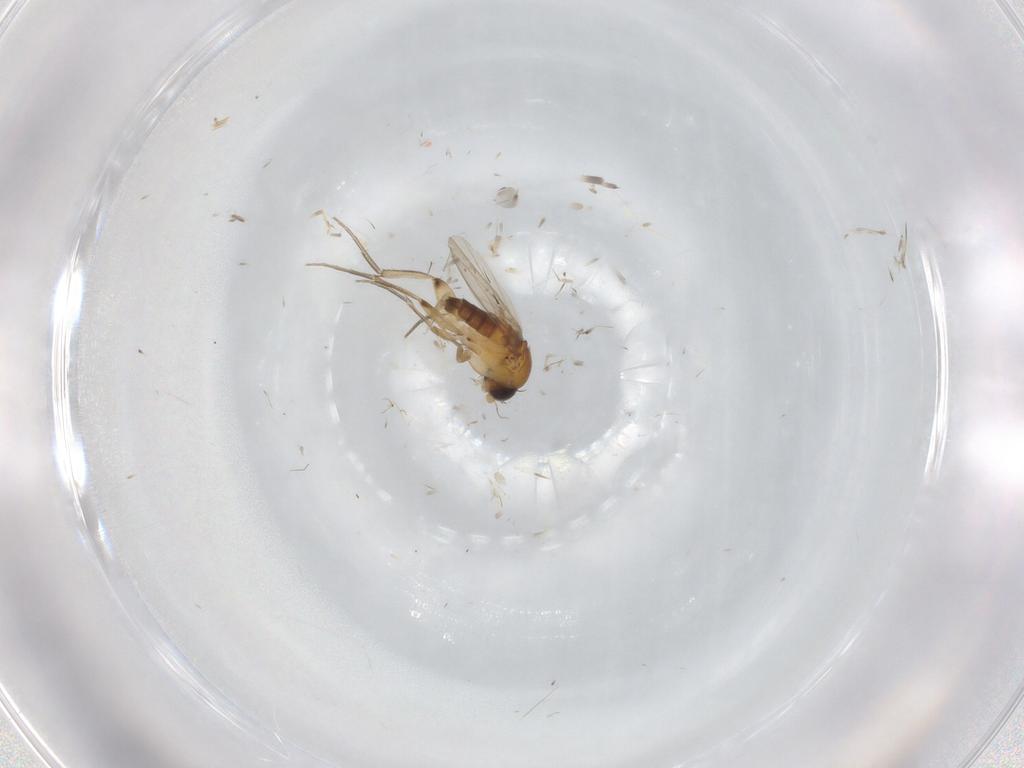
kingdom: Animalia
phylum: Arthropoda
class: Insecta
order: Diptera
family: Cecidomyiidae
